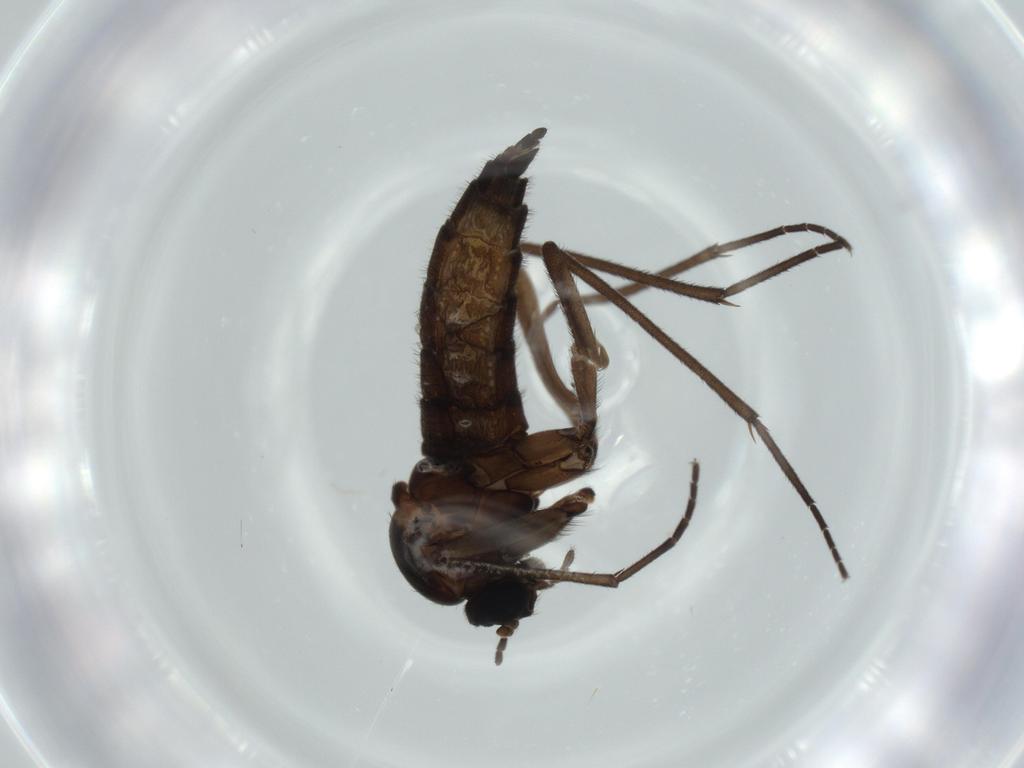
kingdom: Animalia
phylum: Arthropoda
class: Insecta
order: Diptera
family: Sciaridae
